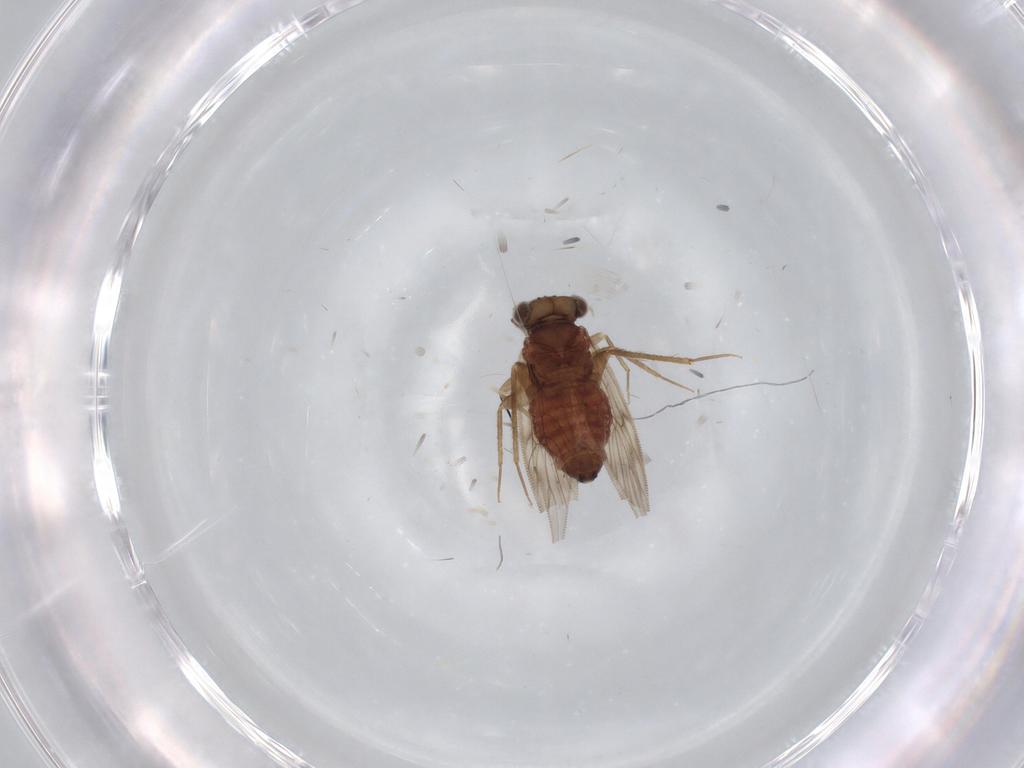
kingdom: Animalia
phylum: Arthropoda
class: Insecta
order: Psocodea
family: Lepidopsocidae
